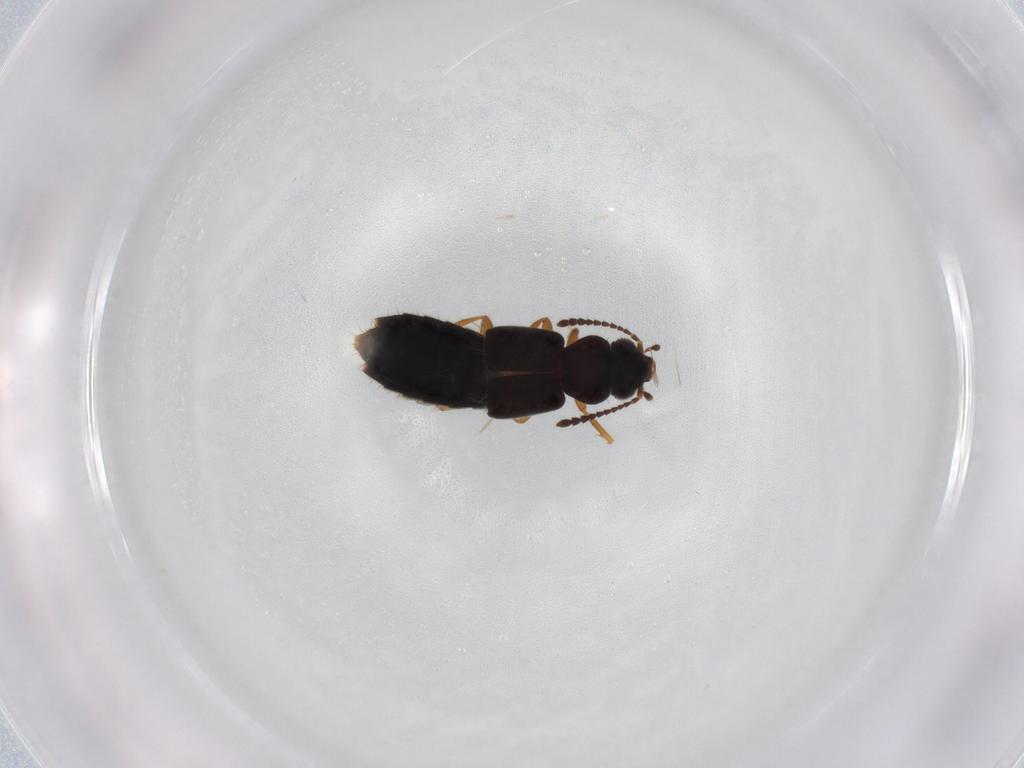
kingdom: Animalia
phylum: Arthropoda
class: Insecta
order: Coleoptera
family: Staphylinidae
